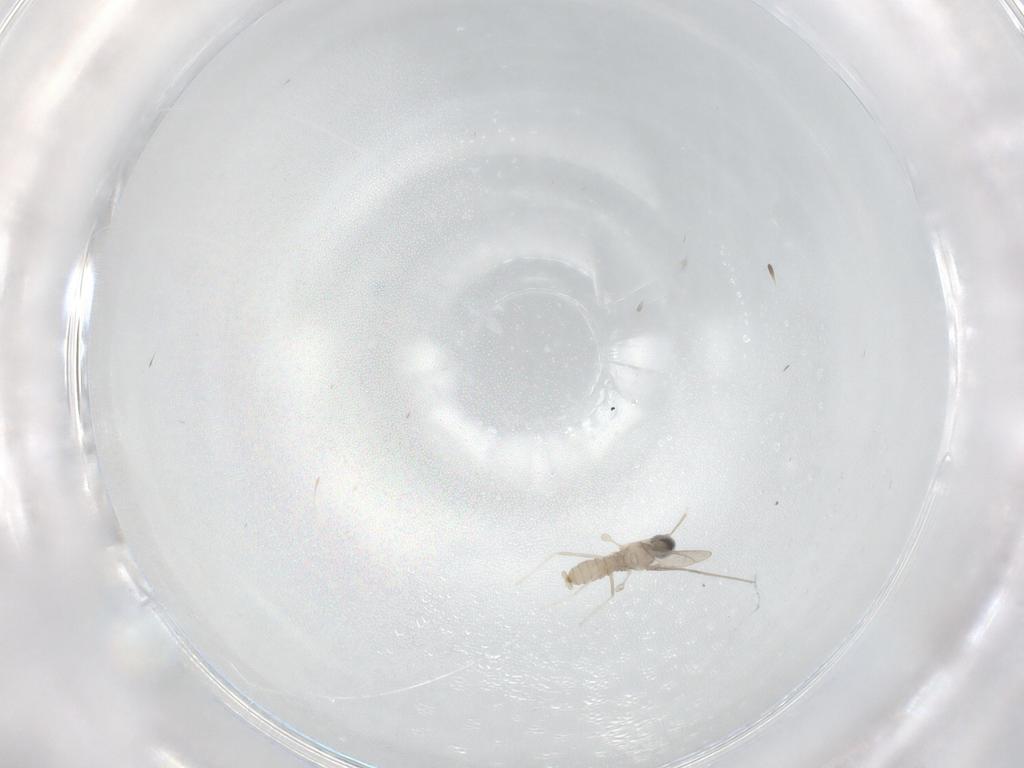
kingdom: Animalia
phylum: Arthropoda
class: Insecta
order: Diptera
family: Cecidomyiidae
